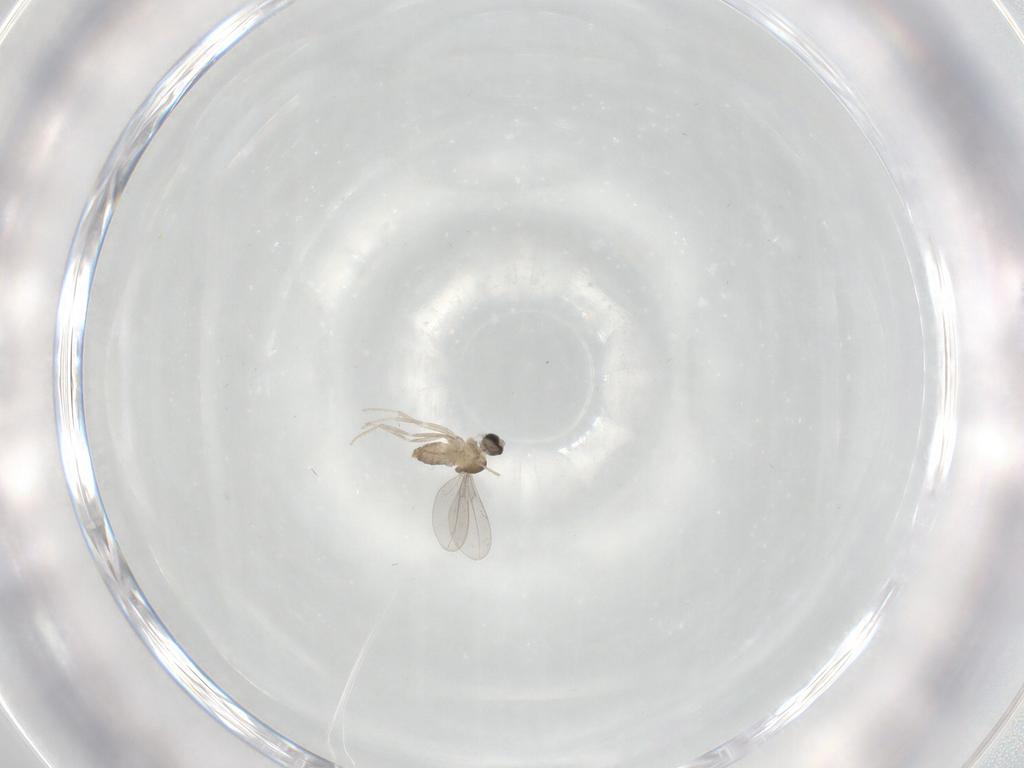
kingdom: Animalia
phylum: Arthropoda
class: Insecta
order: Diptera
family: Cecidomyiidae
